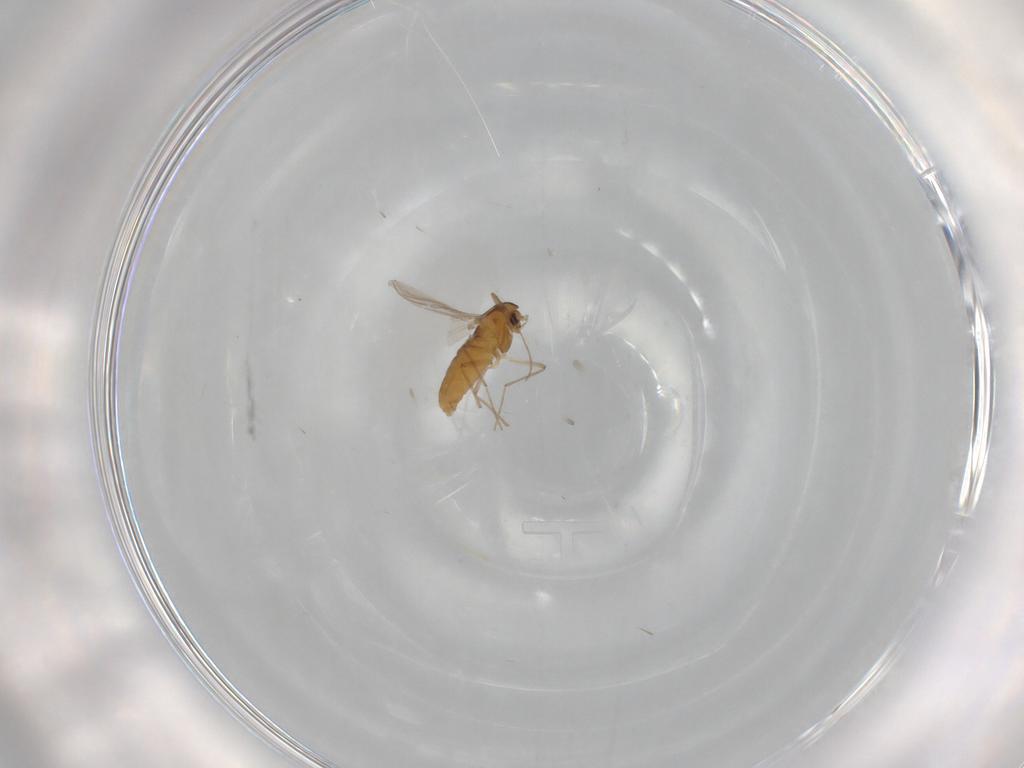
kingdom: Animalia
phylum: Arthropoda
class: Insecta
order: Diptera
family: Chironomidae
